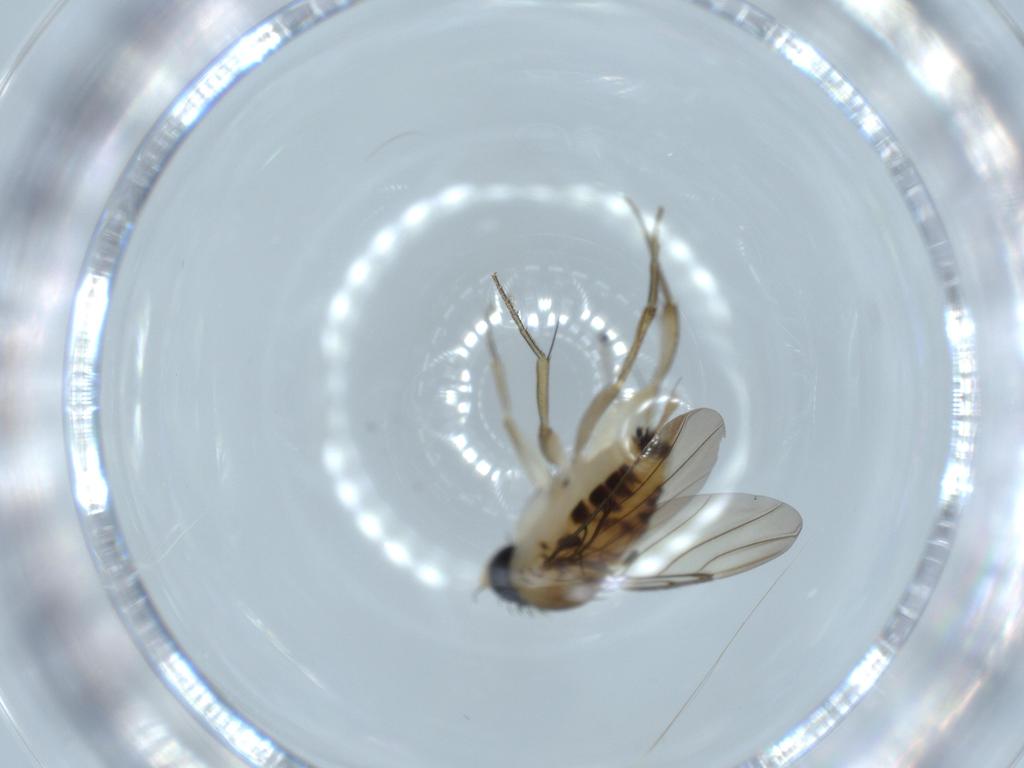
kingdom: Animalia
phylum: Arthropoda
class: Insecta
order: Diptera
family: Phoridae
